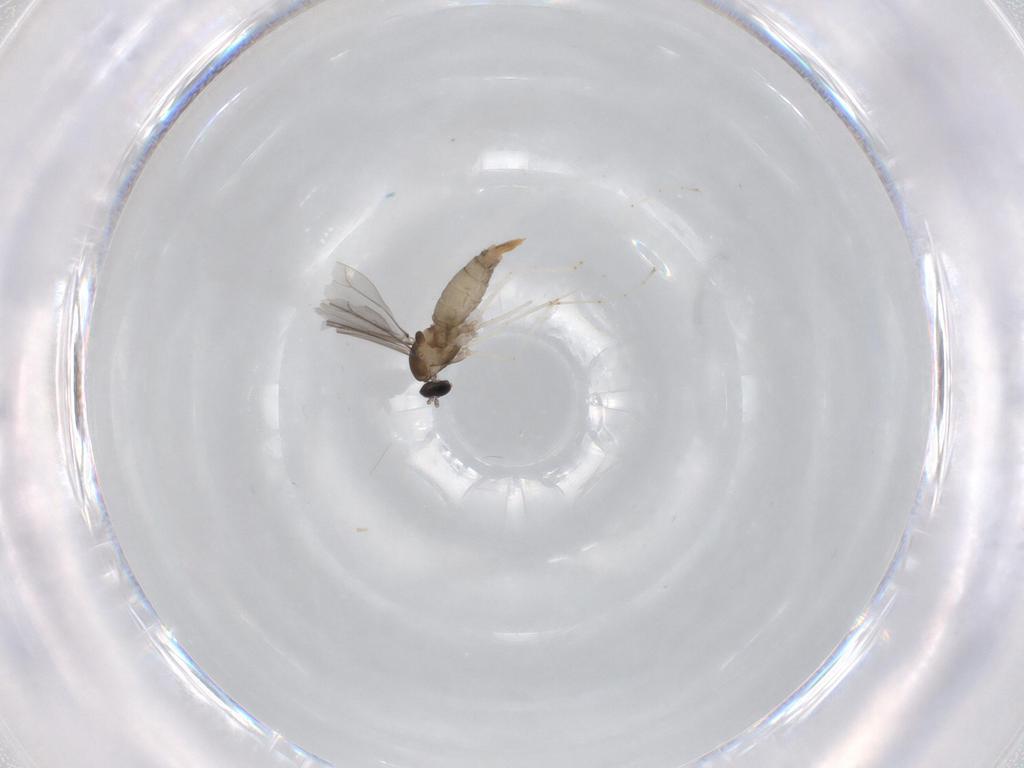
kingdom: Animalia
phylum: Arthropoda
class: Insecta
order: Diptera
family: Cecidomyiidae
